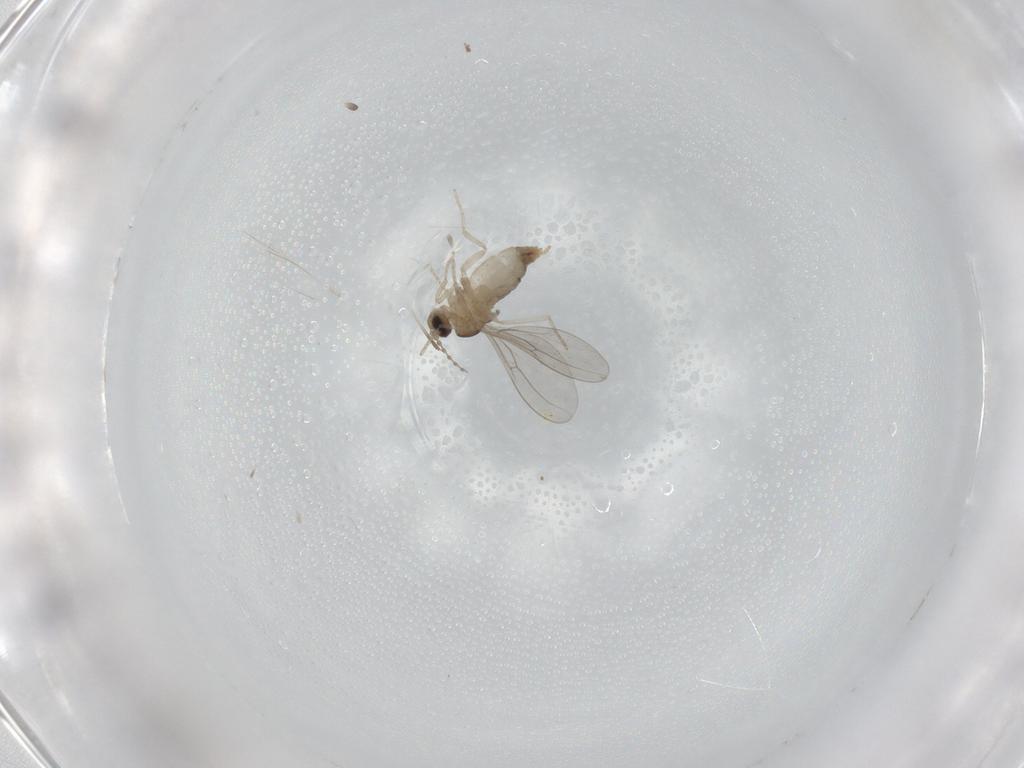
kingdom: Animalia
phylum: Arthropoda
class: Insecta
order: Diptera
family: Cecidomyiidae
